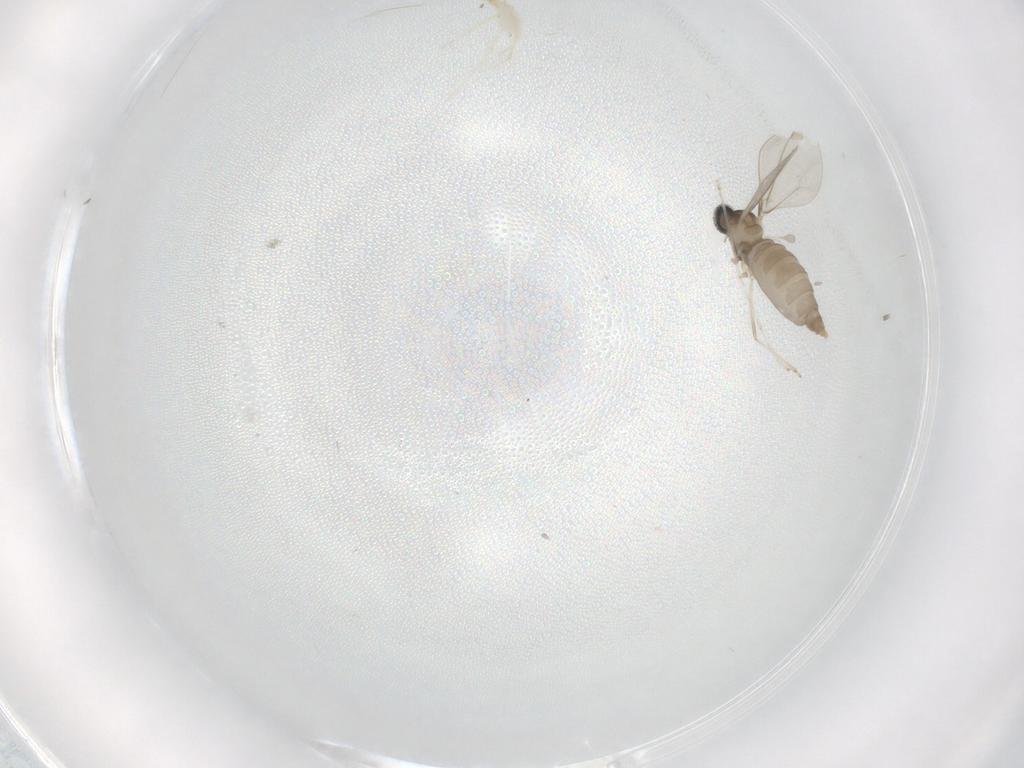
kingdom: Animalia
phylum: Arthropoda
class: Insecta
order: Diptera
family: Cecidomyiidae
